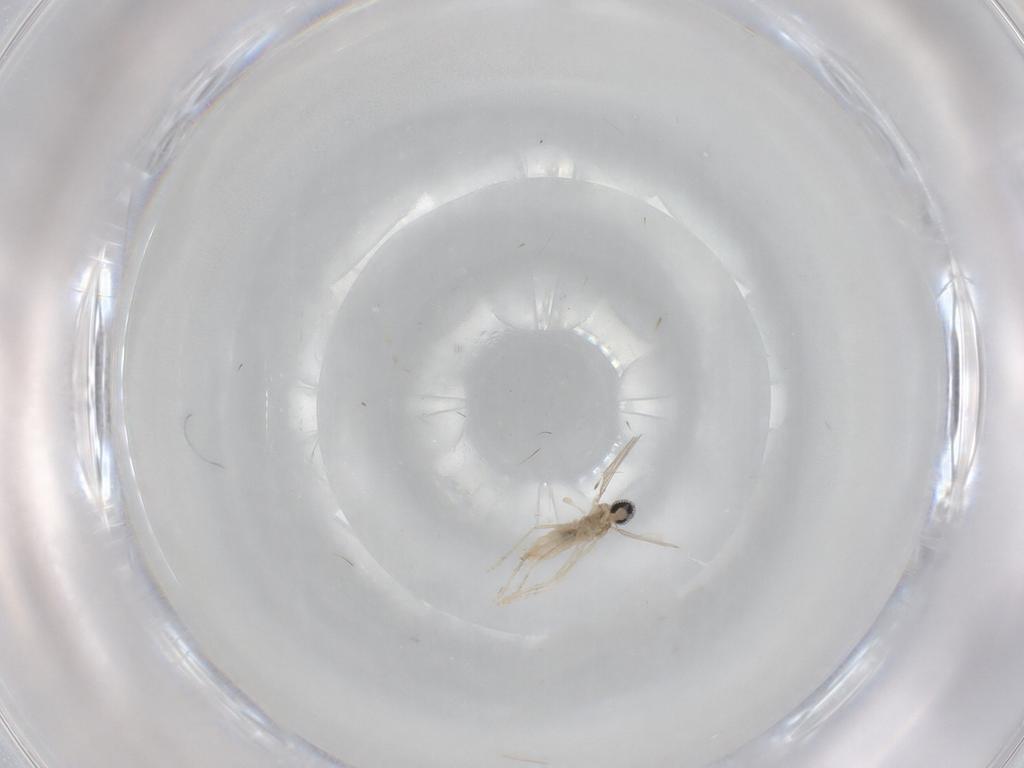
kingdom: Animalia
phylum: Arthropoda
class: Insecta
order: Diptera
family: Cecidomyiidae
